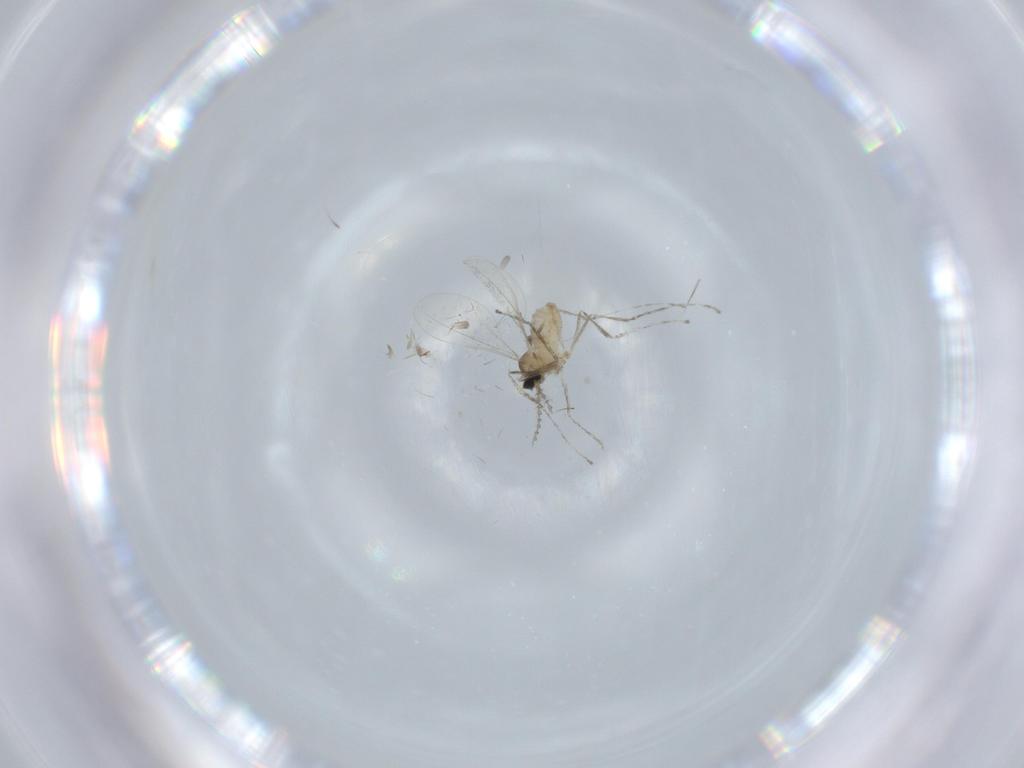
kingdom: Animalia
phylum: Arthropoda
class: Insecta
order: Diptera
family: Cecidomyiidae
